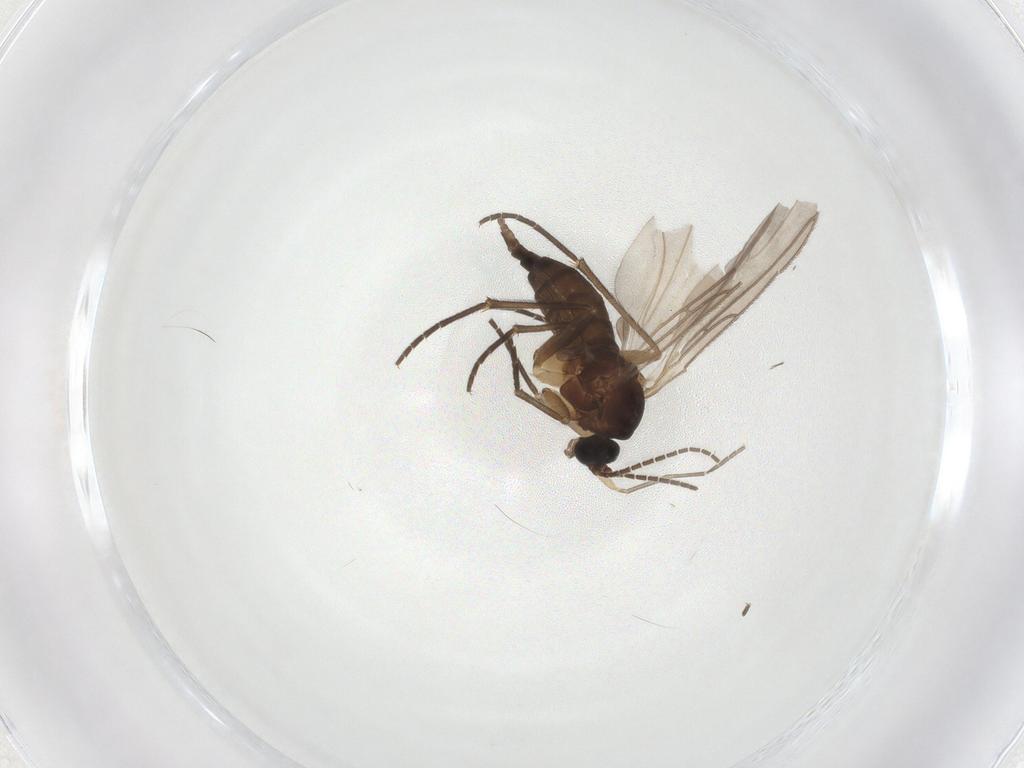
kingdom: Animalia
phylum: Arthropoda
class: Insecta
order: Diptera
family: Sciaridae
